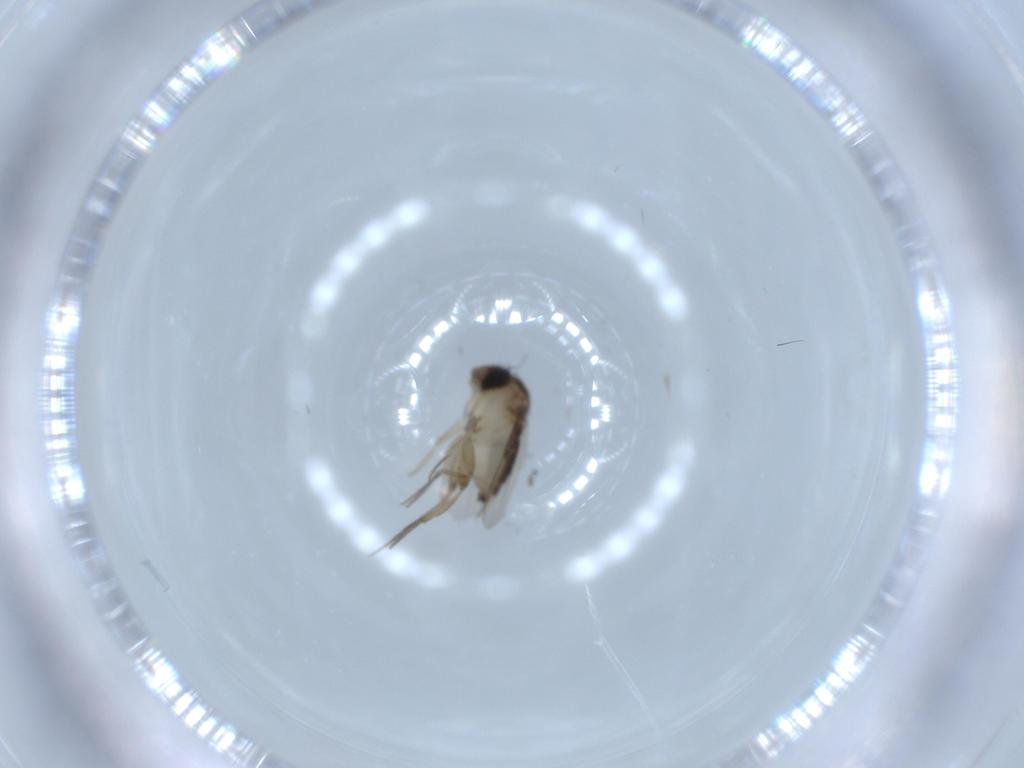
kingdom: Animalia
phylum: Arthropoda
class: Insecta
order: Diptera
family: Phoridae
